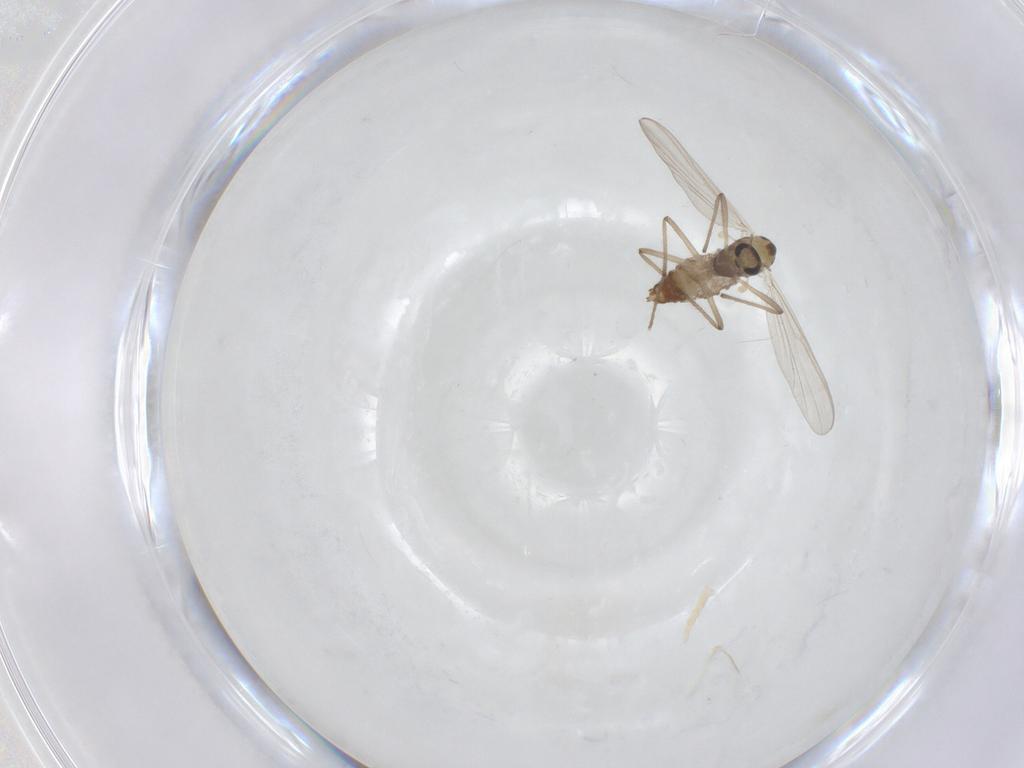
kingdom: Animalia
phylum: Arthropoda
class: Insecta
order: Diptera
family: Chironomidae
